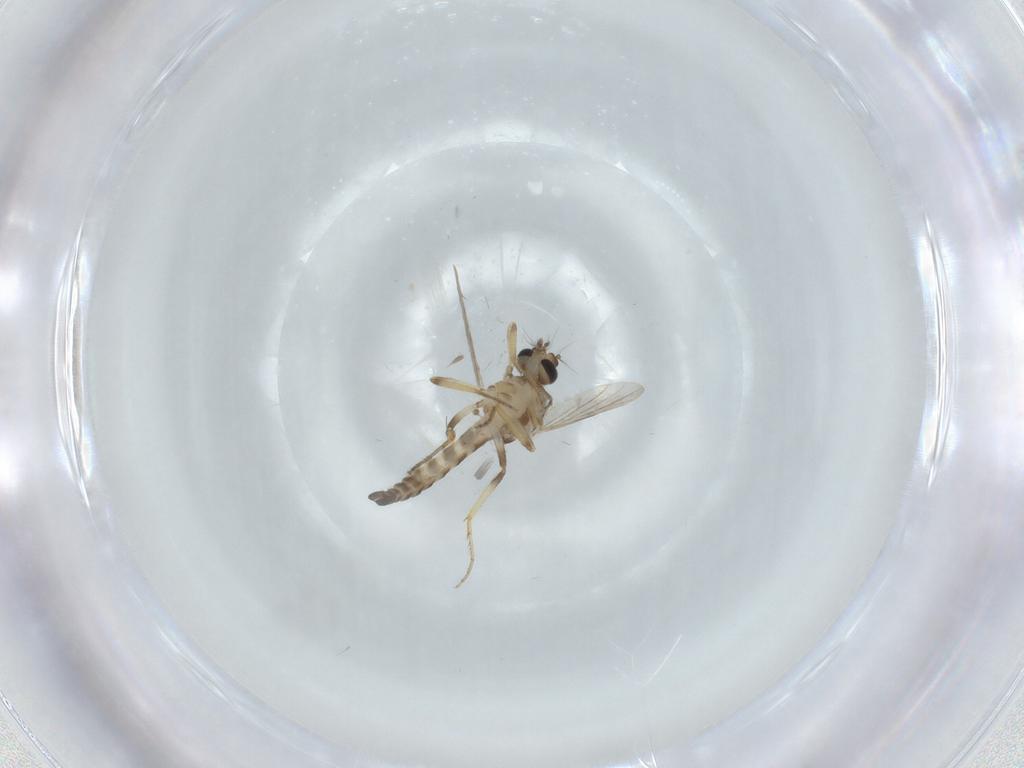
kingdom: Animalia
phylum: Arthropoda
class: Insecta
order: Diptera
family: Ceratopogonidae
